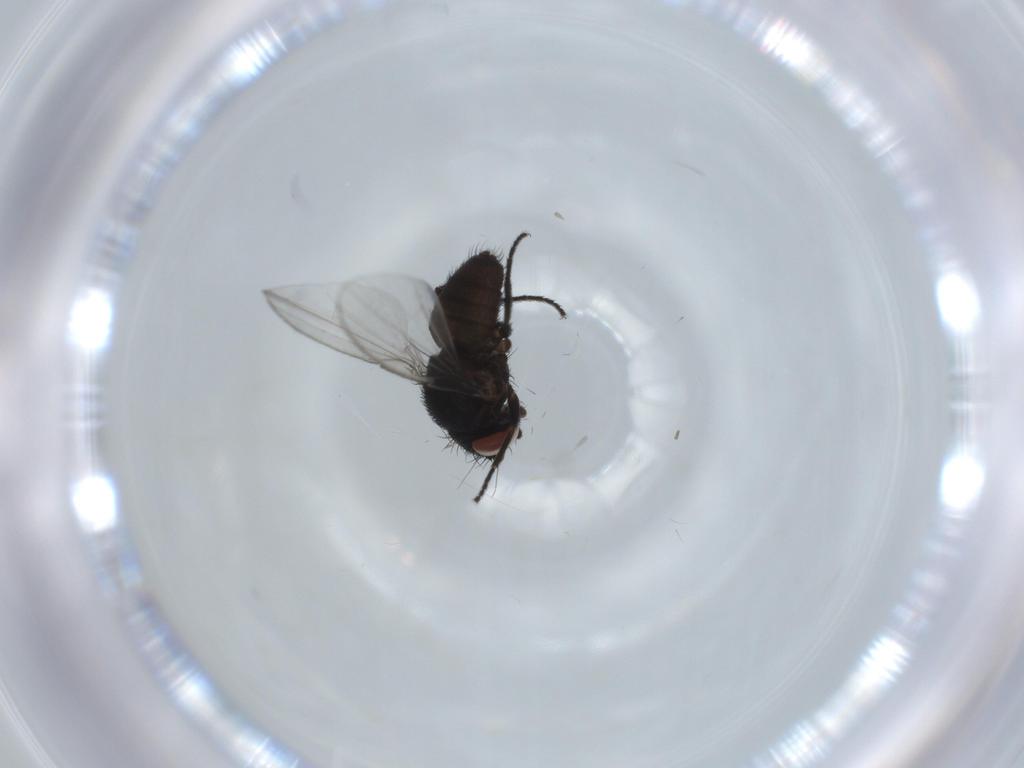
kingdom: Animalia
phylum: Arthropoda
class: Insecta
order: Diptera
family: Milichiidae
